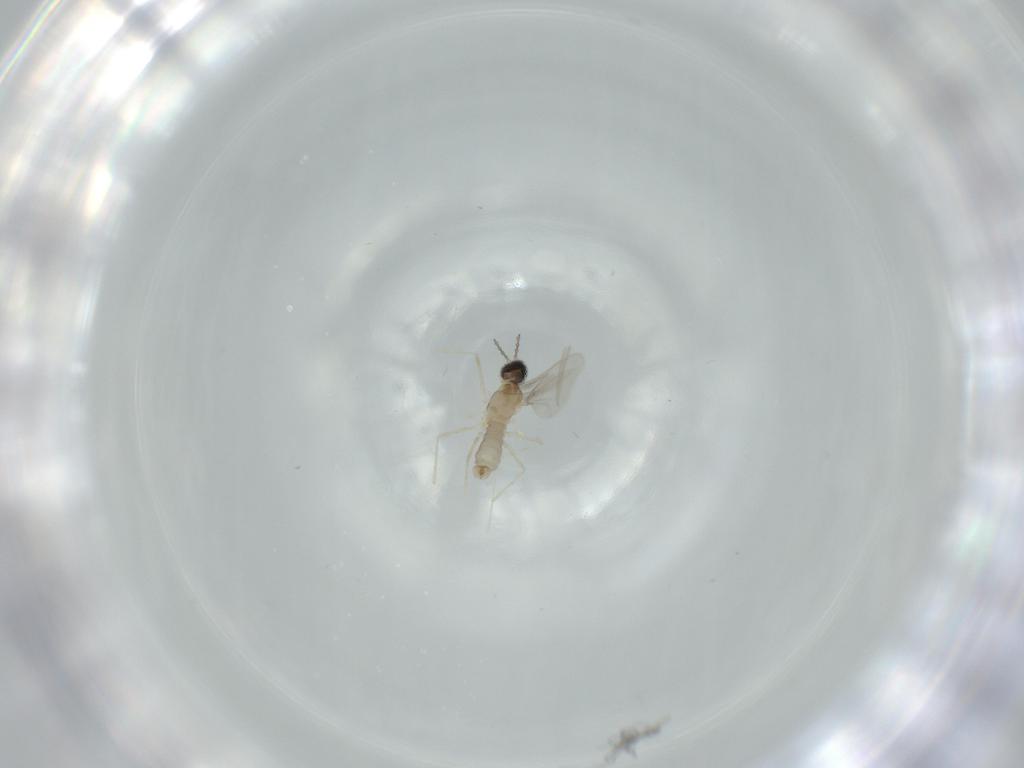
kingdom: Animalia
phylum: Arthropoda
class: Insecta
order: Diptera
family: Cecidomyiidae
